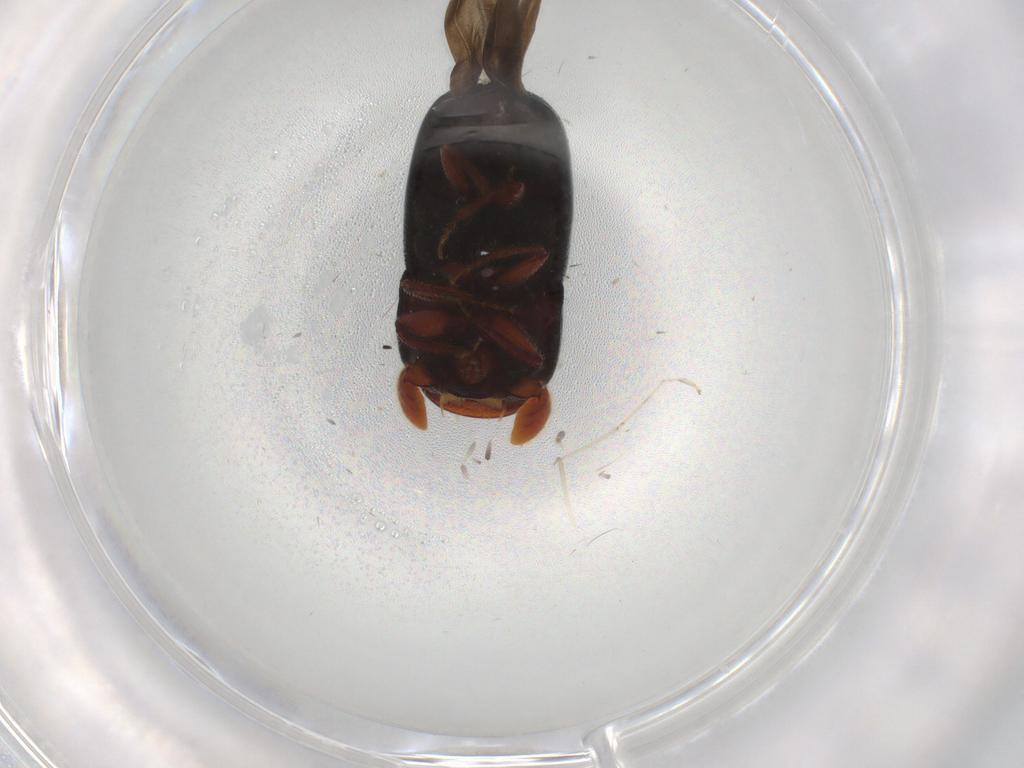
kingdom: Animalia
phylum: Arthropoda
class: Insecta
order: Coleoptera
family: Curculionidae
